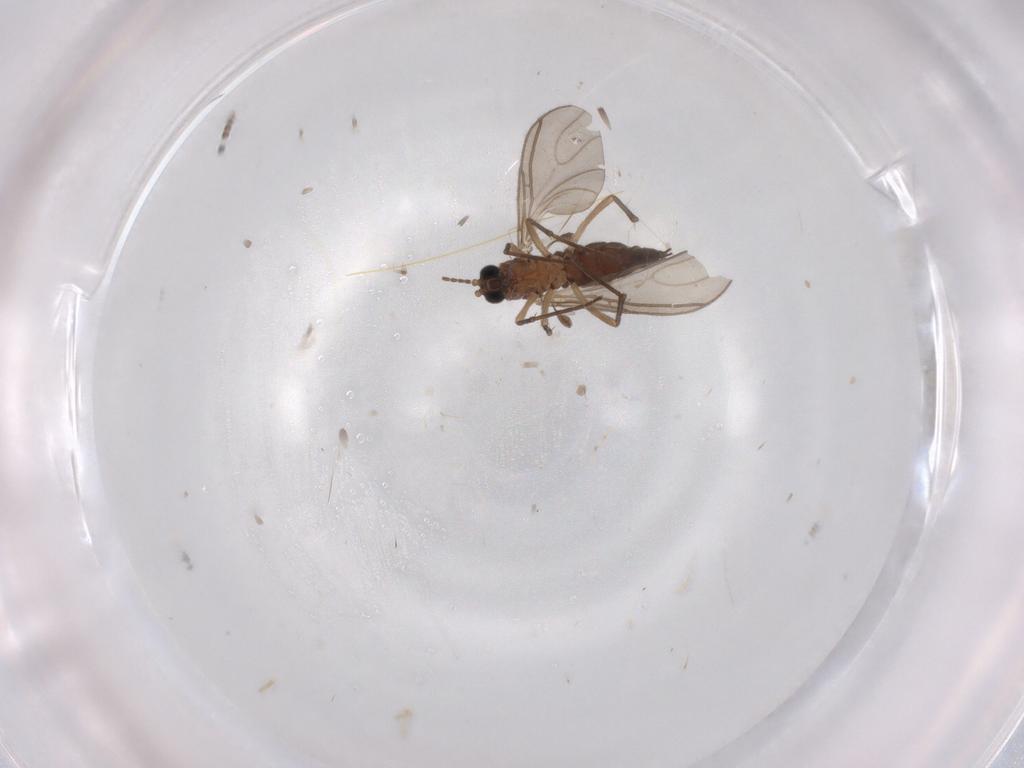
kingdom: Animalia
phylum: Arthropoda
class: Insecta
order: Diptera
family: Sciaridae
